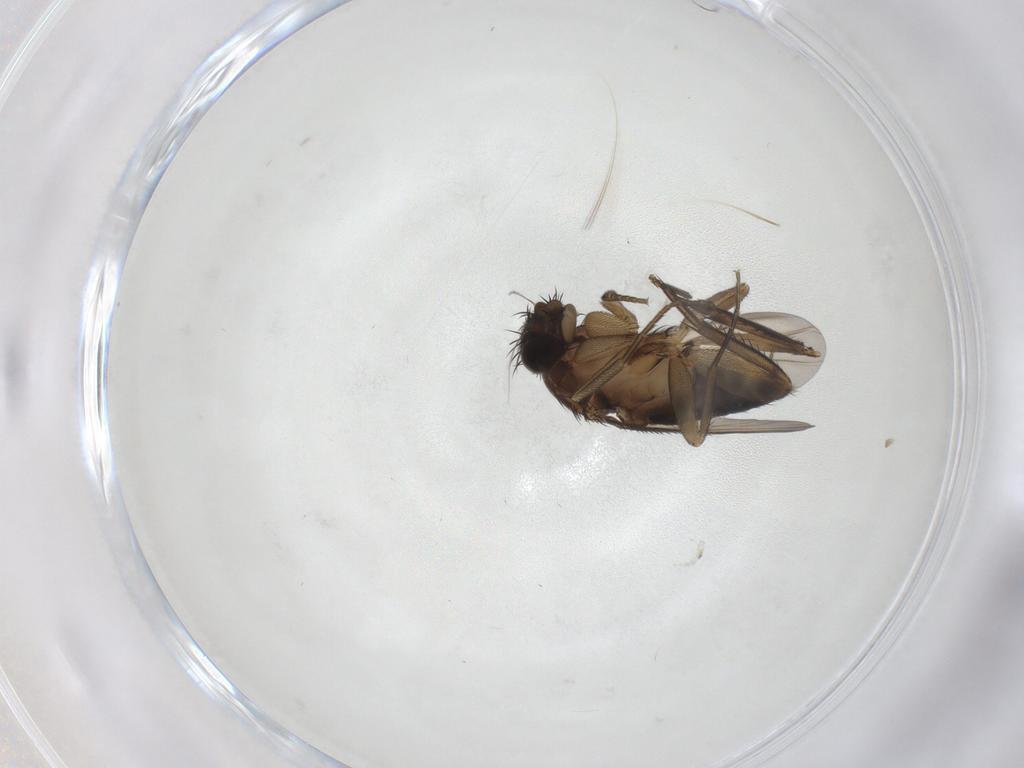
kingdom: Animalia
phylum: Arthropoda
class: Insecta
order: Diptera
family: Phoridae
